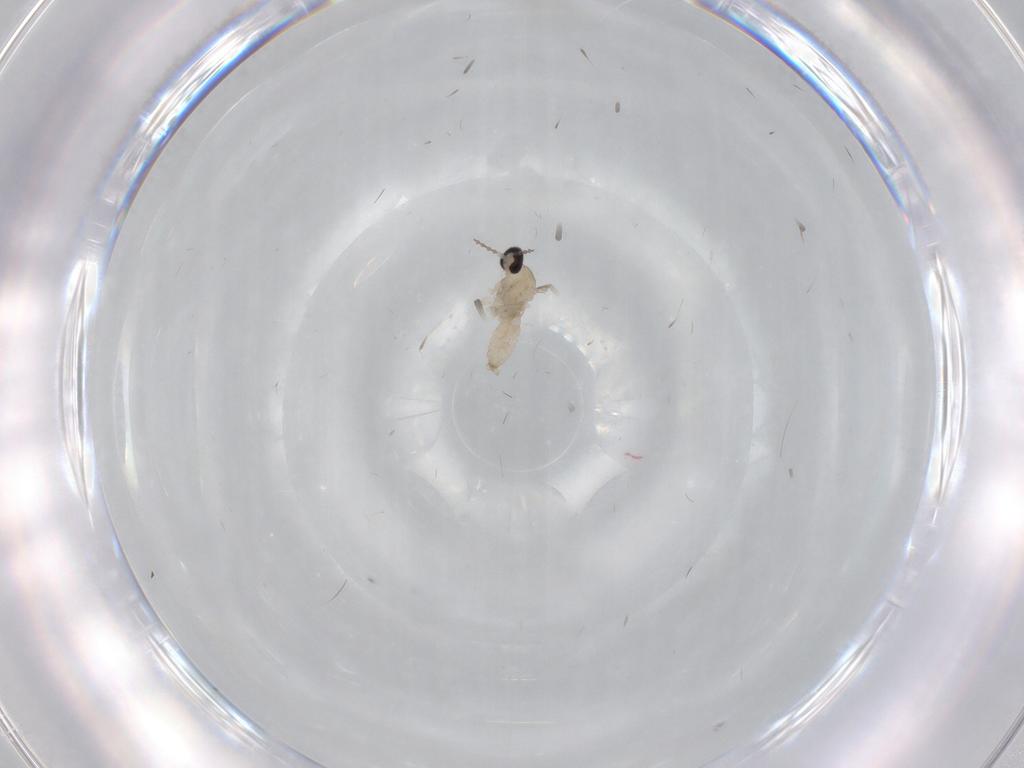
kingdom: Animalia
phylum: Arthropoda
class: Insecta
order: Diptera
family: Cecidomyiidae
